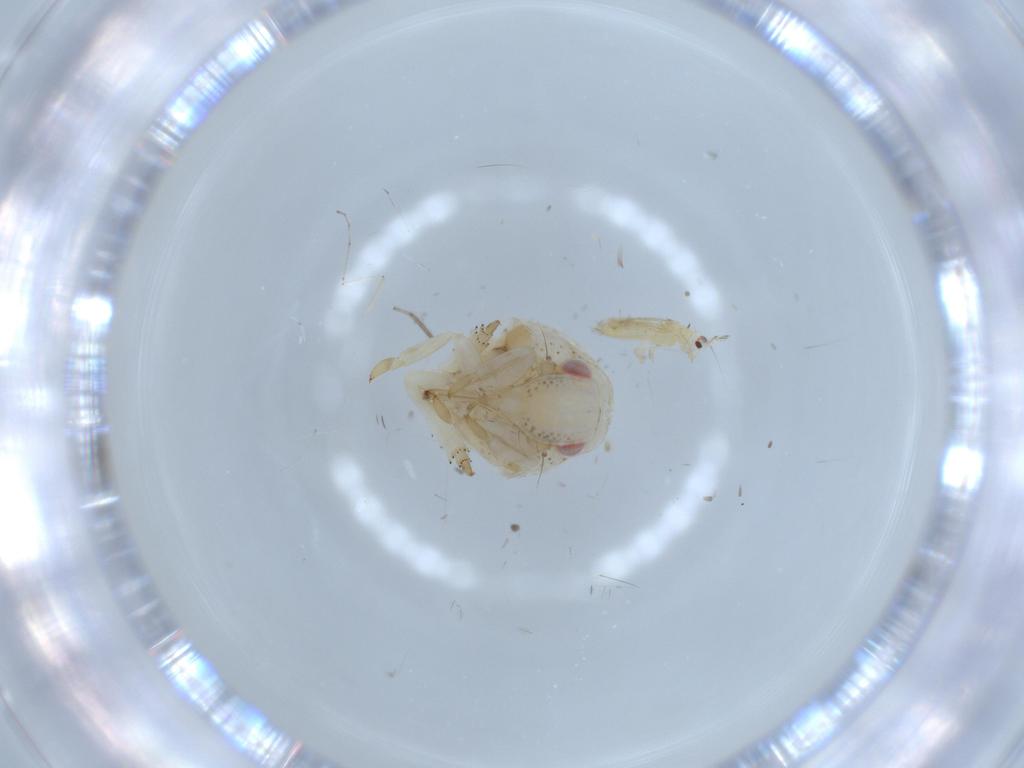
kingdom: Animalia
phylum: Arthropoda
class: Insecta
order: Hemiptera
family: Acanaloniidae
